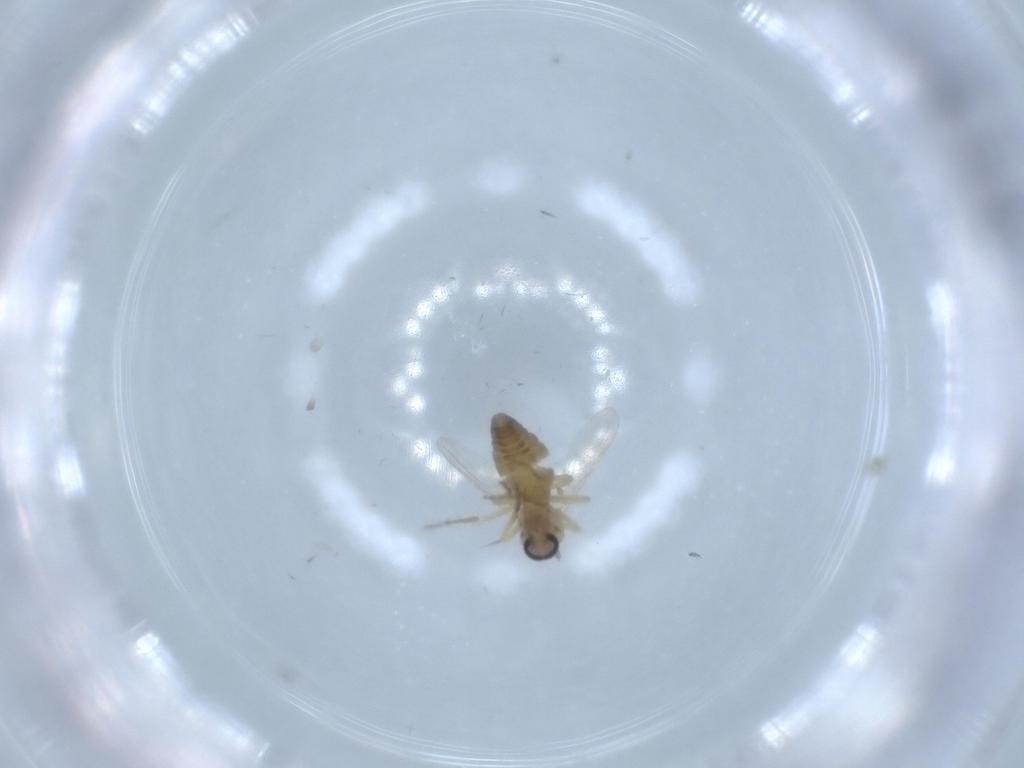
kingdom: Animalia
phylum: Arthropoda
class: Insecta
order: Diptera
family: Ceratopogonidae
